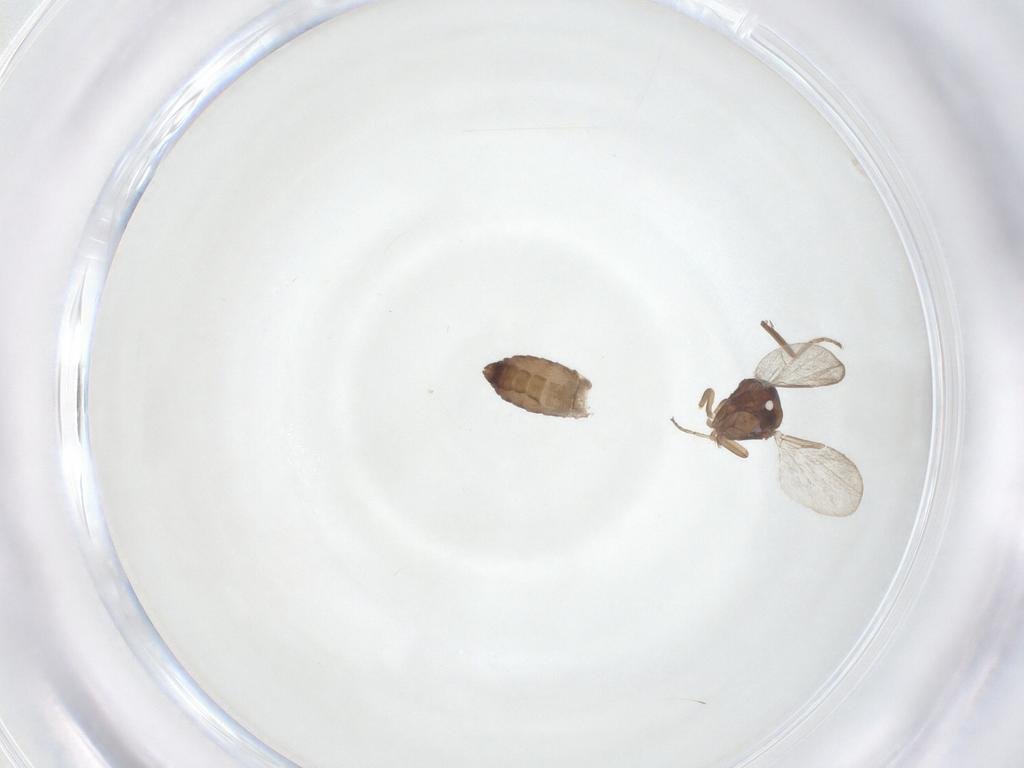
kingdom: Animalia
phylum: Arthropoda
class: Insecta
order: Diptera
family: Ceratopogonidae
